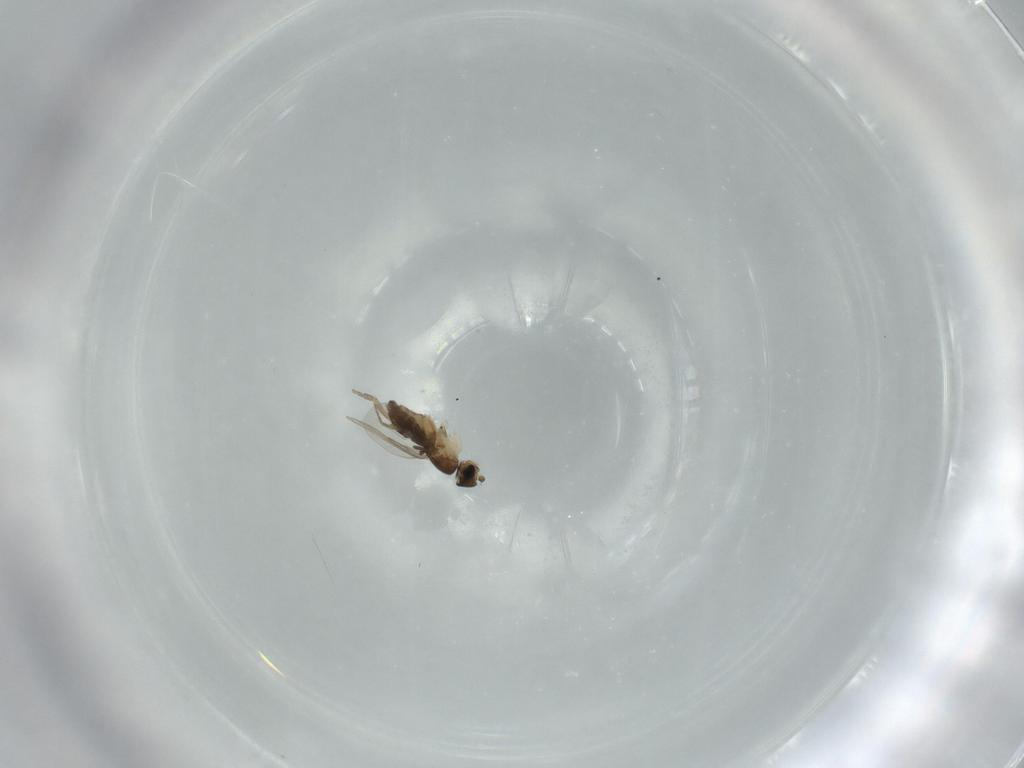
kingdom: Animalia
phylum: Arthropoda
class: Insecta
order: Diptera
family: Phoridae
